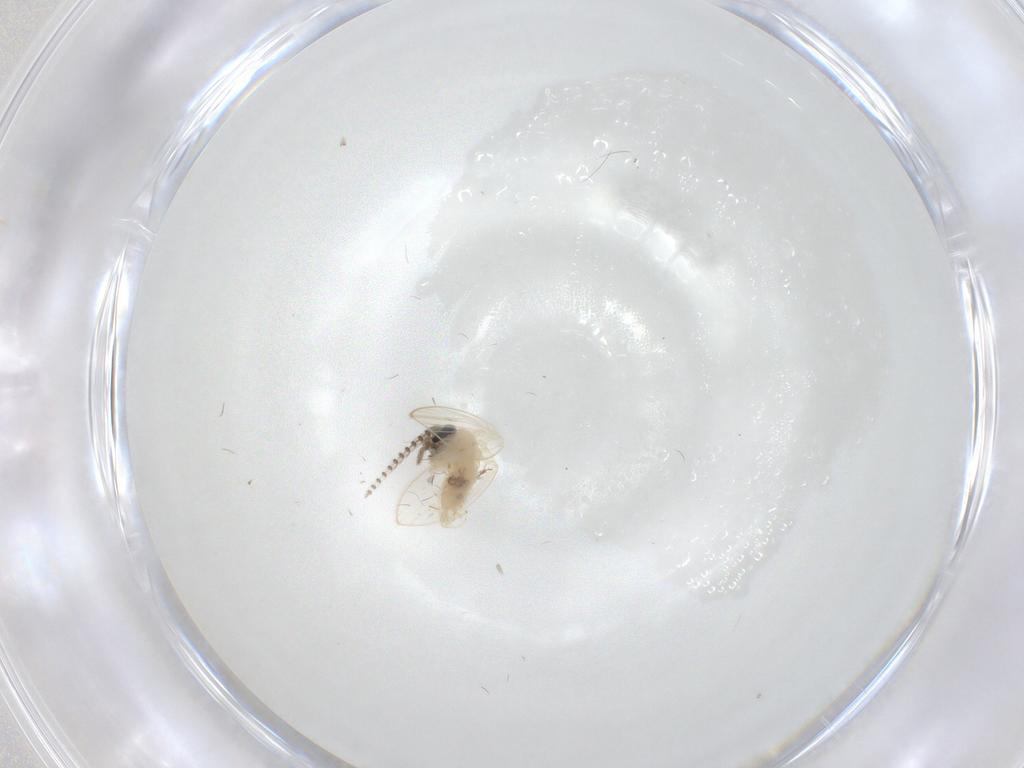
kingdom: Animalia
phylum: Arthropoda
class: Insecta
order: Diptera
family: Psychodidae
